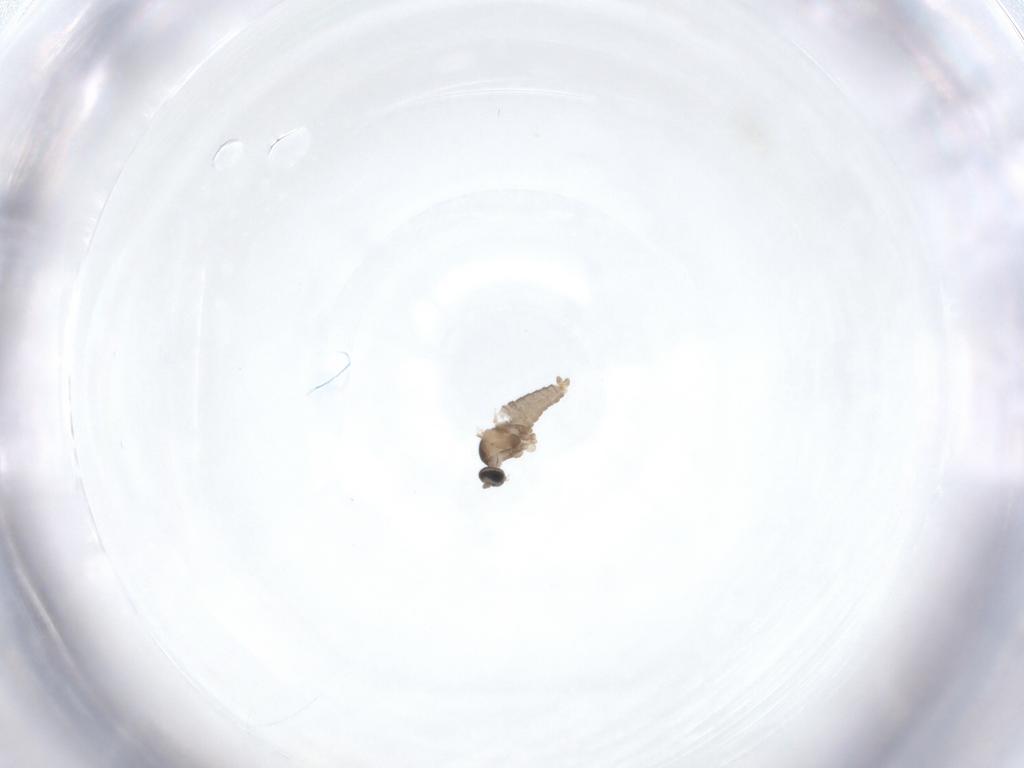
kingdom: Animalia
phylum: Arthropoda
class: Insecta
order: Diptera
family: Cecidomyiidae
